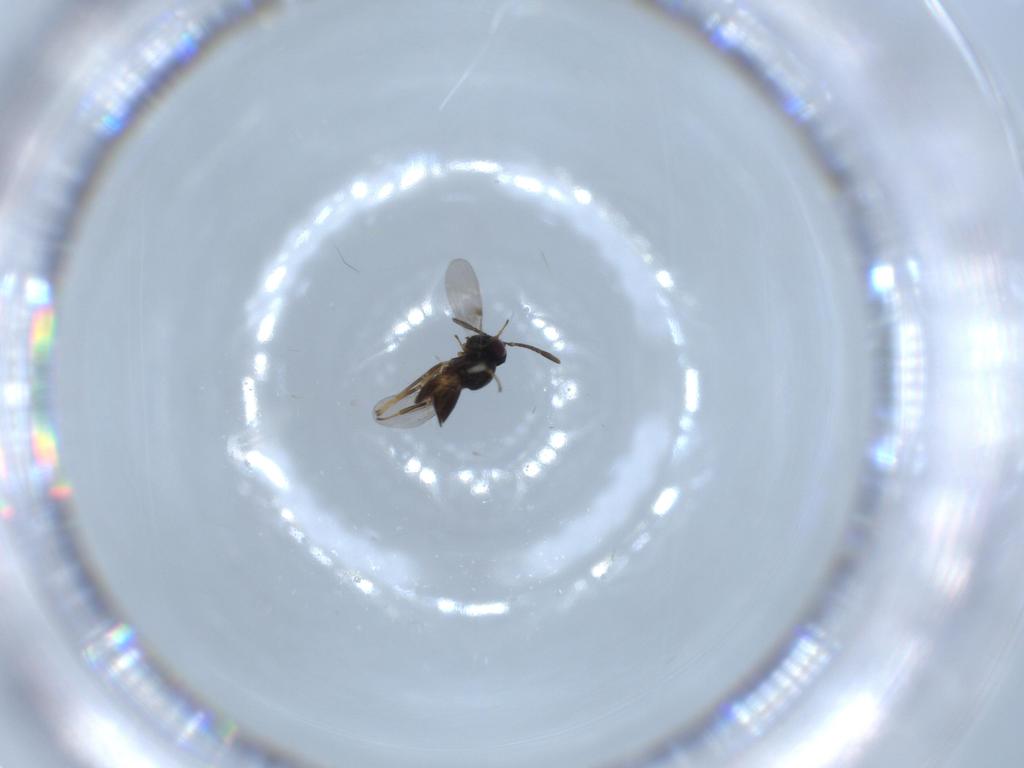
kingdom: Animalia
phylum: Arthropoda
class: Insecta
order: Hymenoptera
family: Encyrtidae
